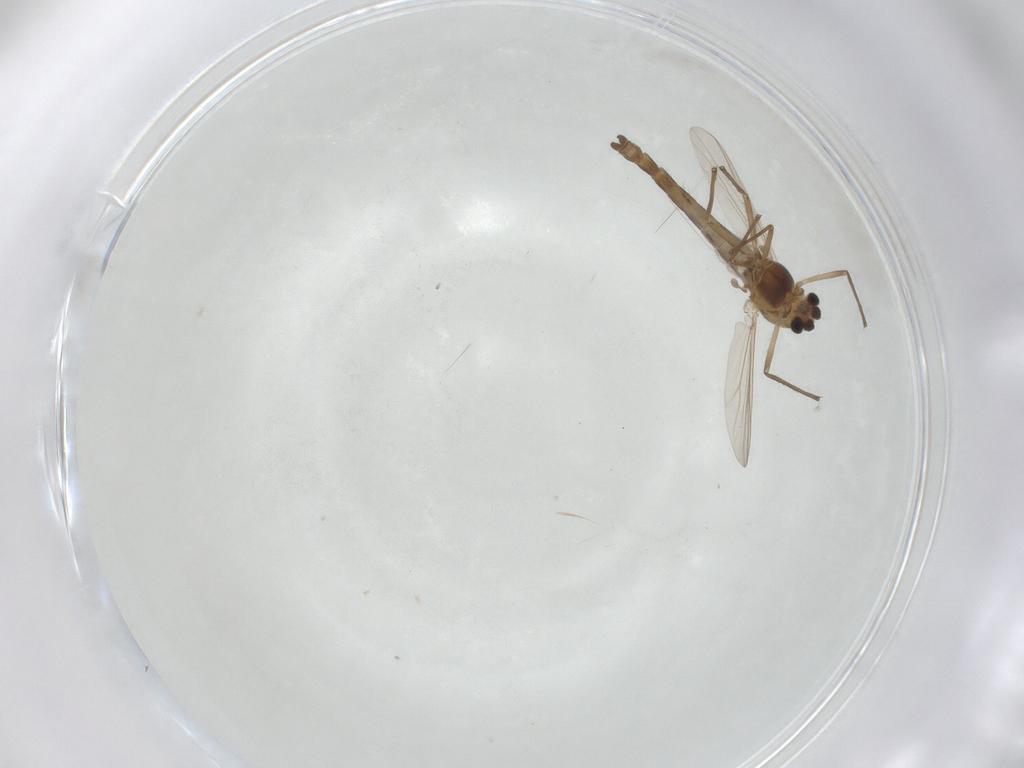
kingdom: Animalia
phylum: Arthropoda
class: Insecta
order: Diptera
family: Chironomidae
